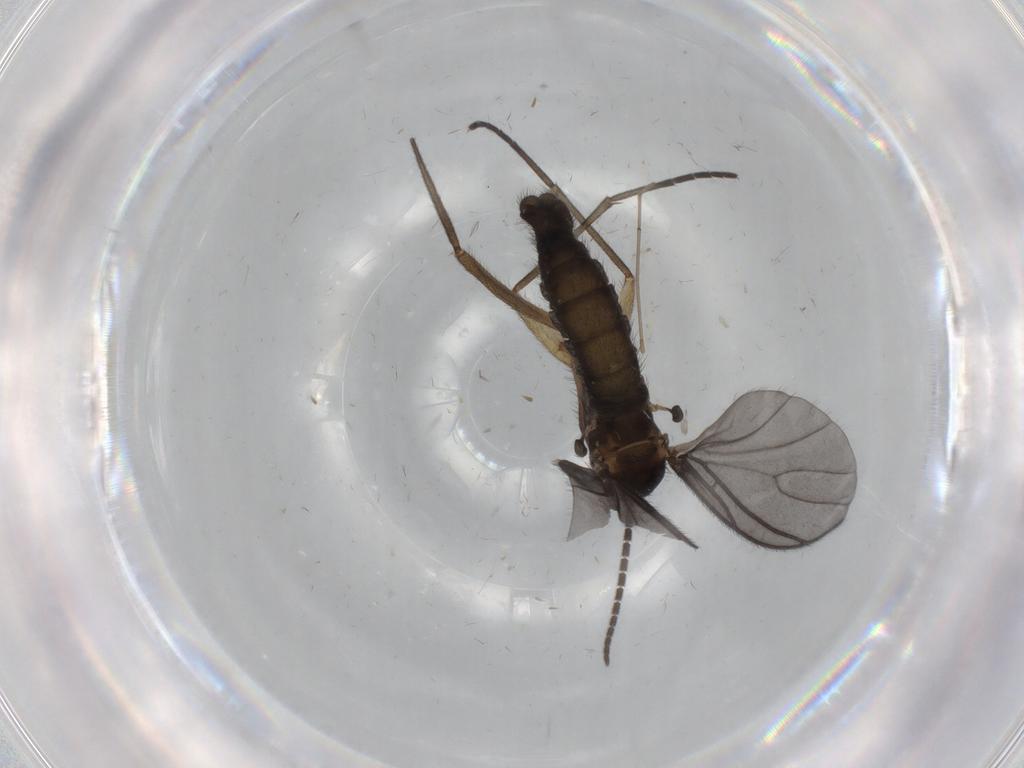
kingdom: Animalia
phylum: Arthropoda
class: Insecta
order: Diptera
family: Sciaridae
